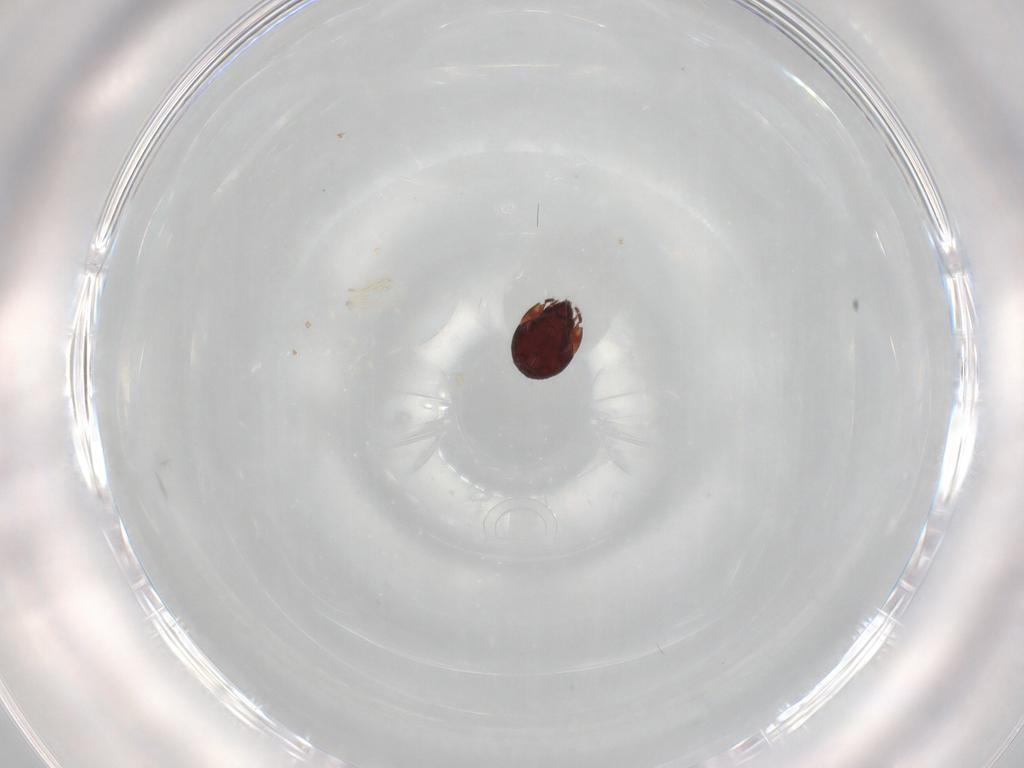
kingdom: Animalia
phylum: Arthropoda
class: Arachnida
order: Sarcoptiformes
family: Humerobatidae
